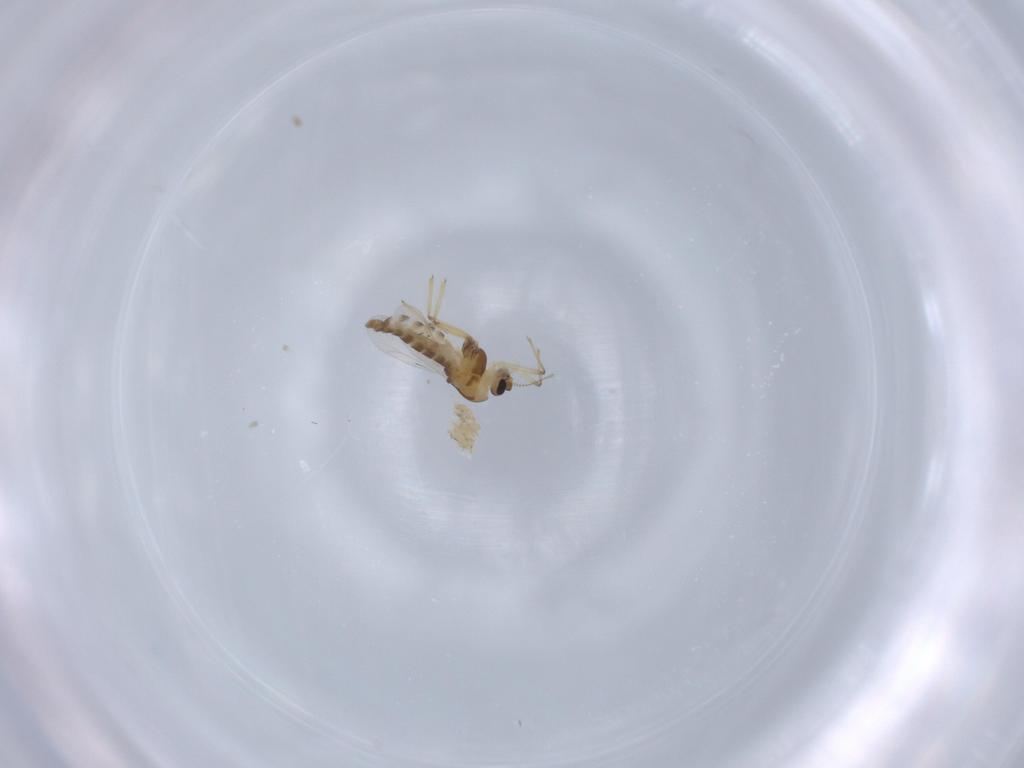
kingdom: Animalia
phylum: Arthropoda
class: Insecta
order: Diptera
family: Chironomidae
